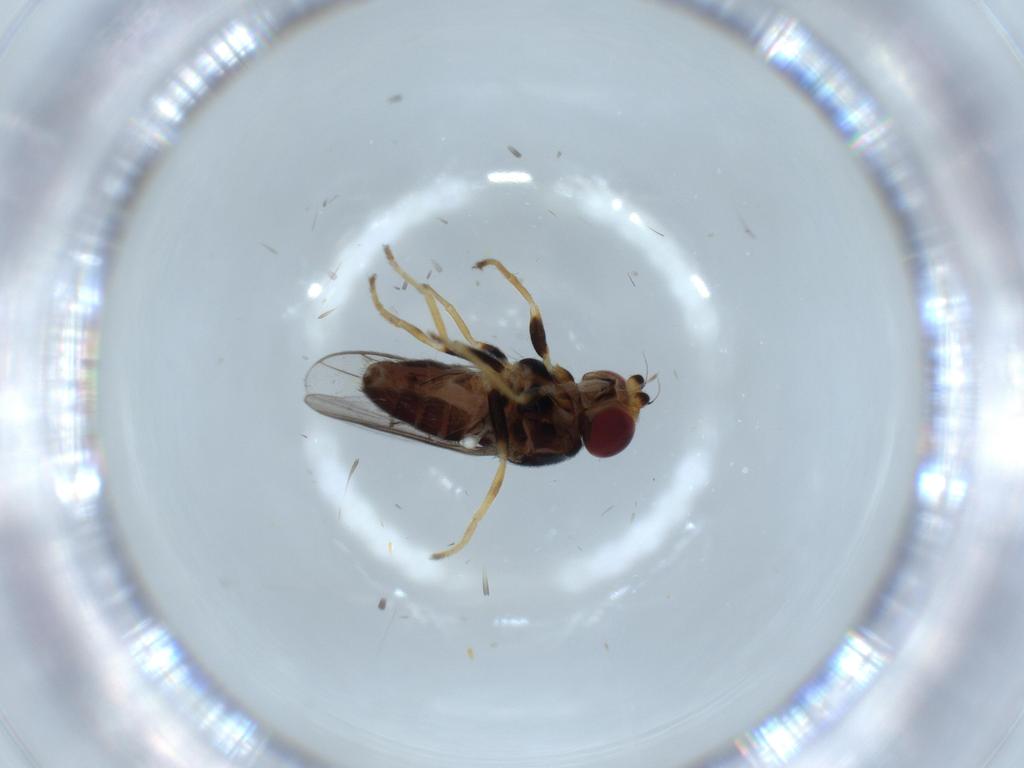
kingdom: Animalia
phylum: Arthropoda
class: Insecta
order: Diptera
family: Chloropidae
